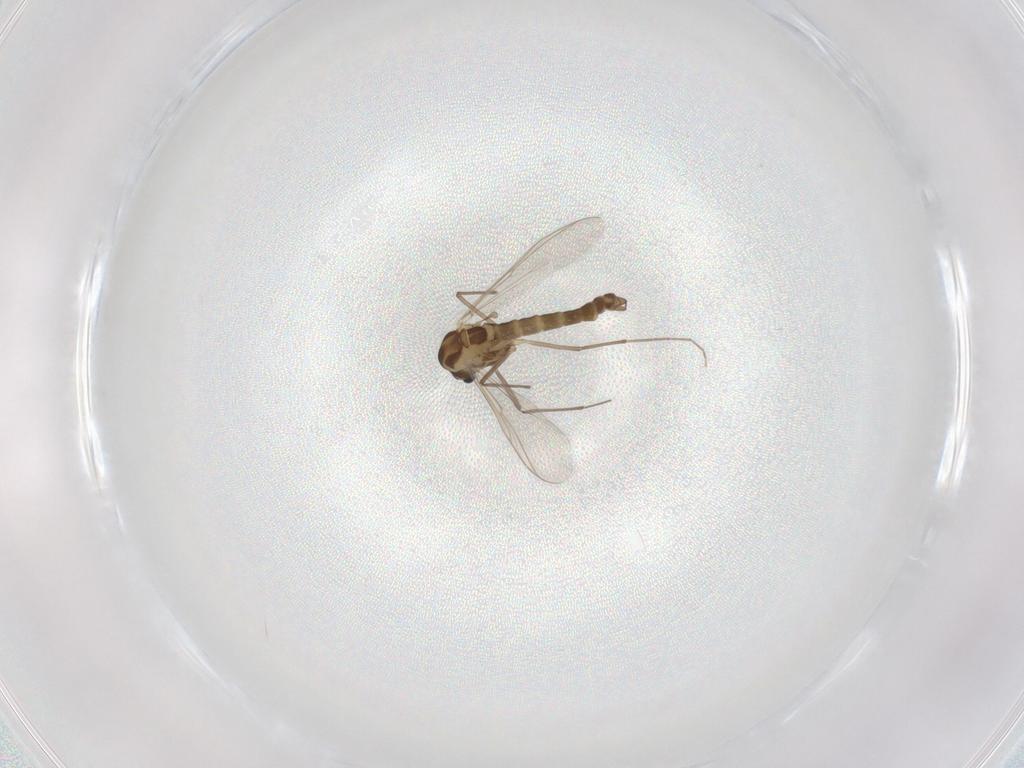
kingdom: Animalia
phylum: Arthropoda
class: Insecta
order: Diptera
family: Chironomidae
